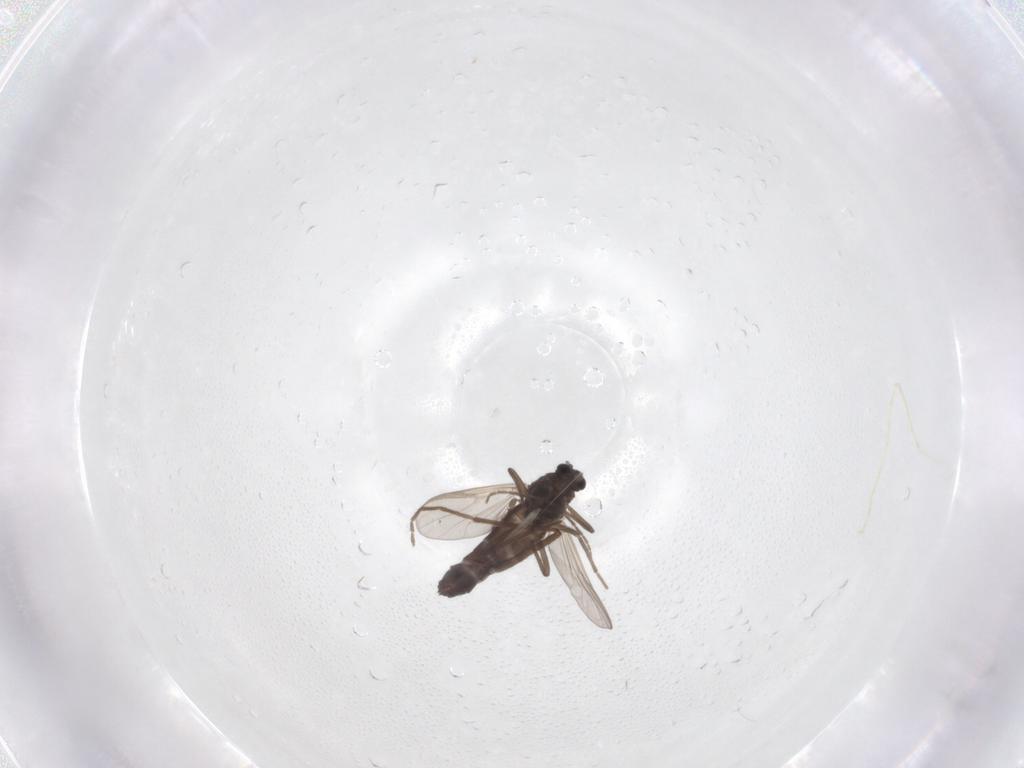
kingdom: Animalia
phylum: Arthropoda
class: Insecta
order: Diptera
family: Chironomidae
